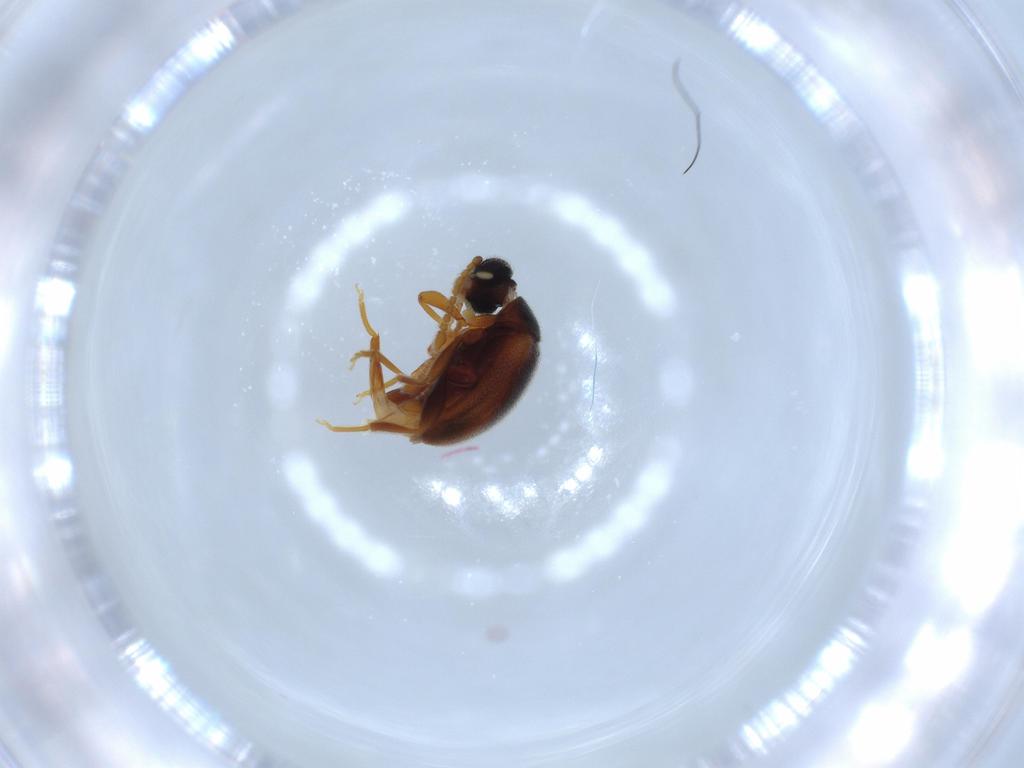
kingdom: Animalia
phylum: Arthropoda
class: Insecta
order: Coleoptera
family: Aderidae
